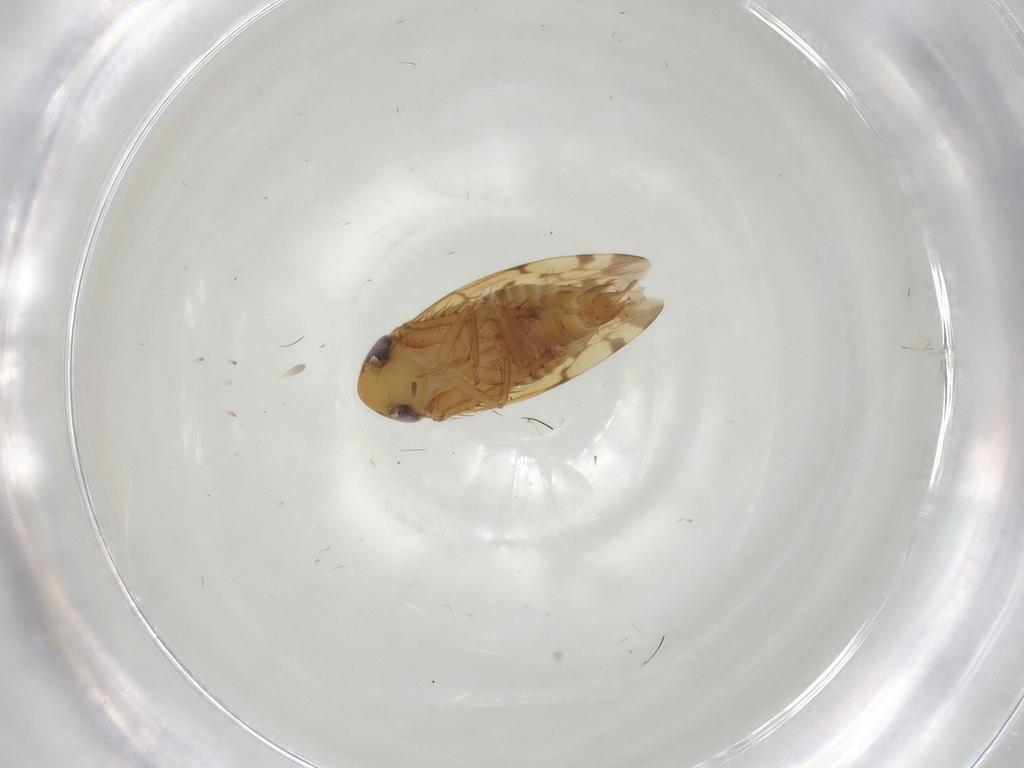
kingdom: Animalia
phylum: Arthropoda
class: Insecta
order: Hemiptera
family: Cicadellidae
